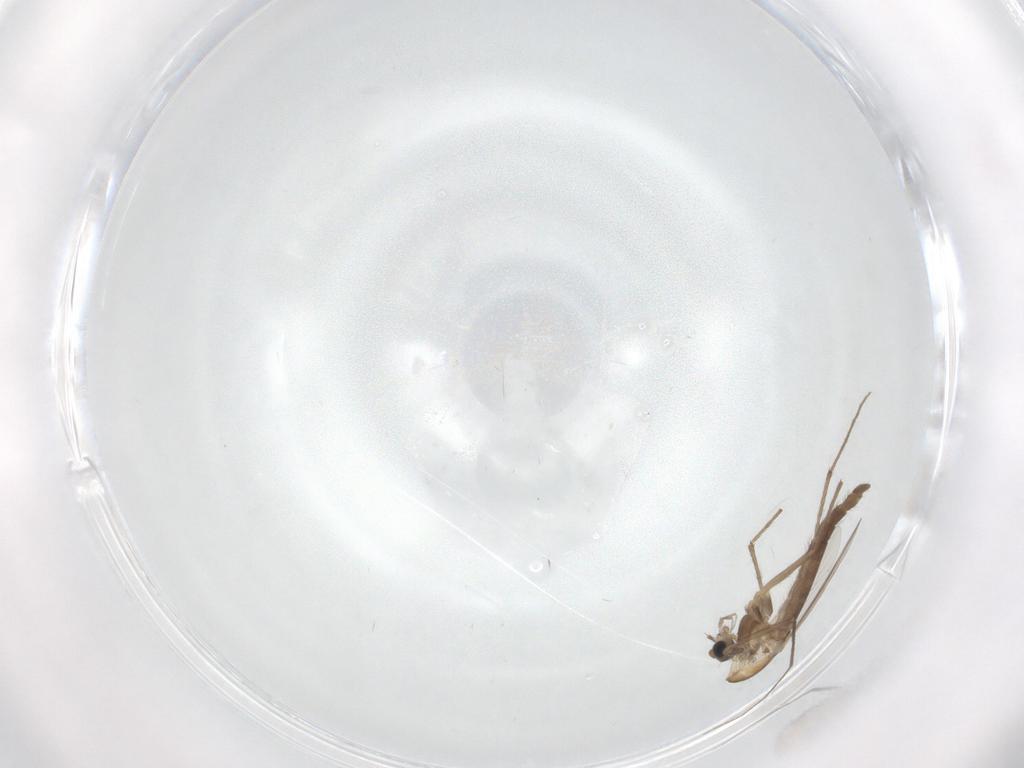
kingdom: Animalia
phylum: Arthropoda
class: Insecta
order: Diptera
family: Chironomidae
